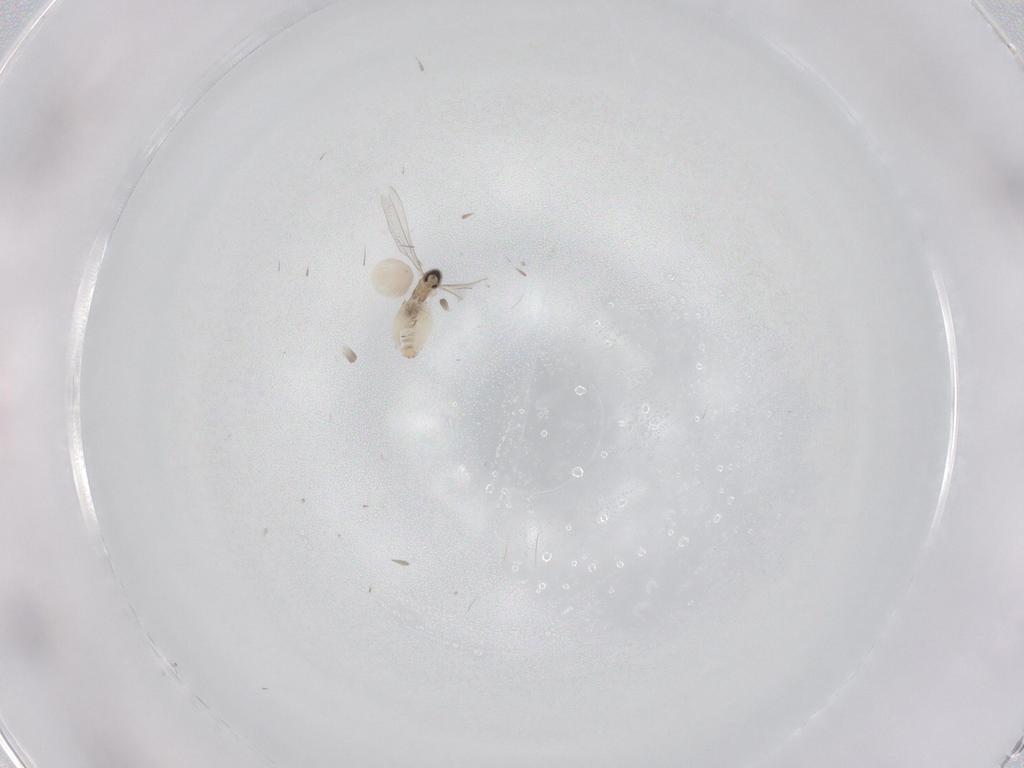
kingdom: Animalia
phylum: Arthropoda
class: Insecta
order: Diptera
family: Cecidomyiidae
